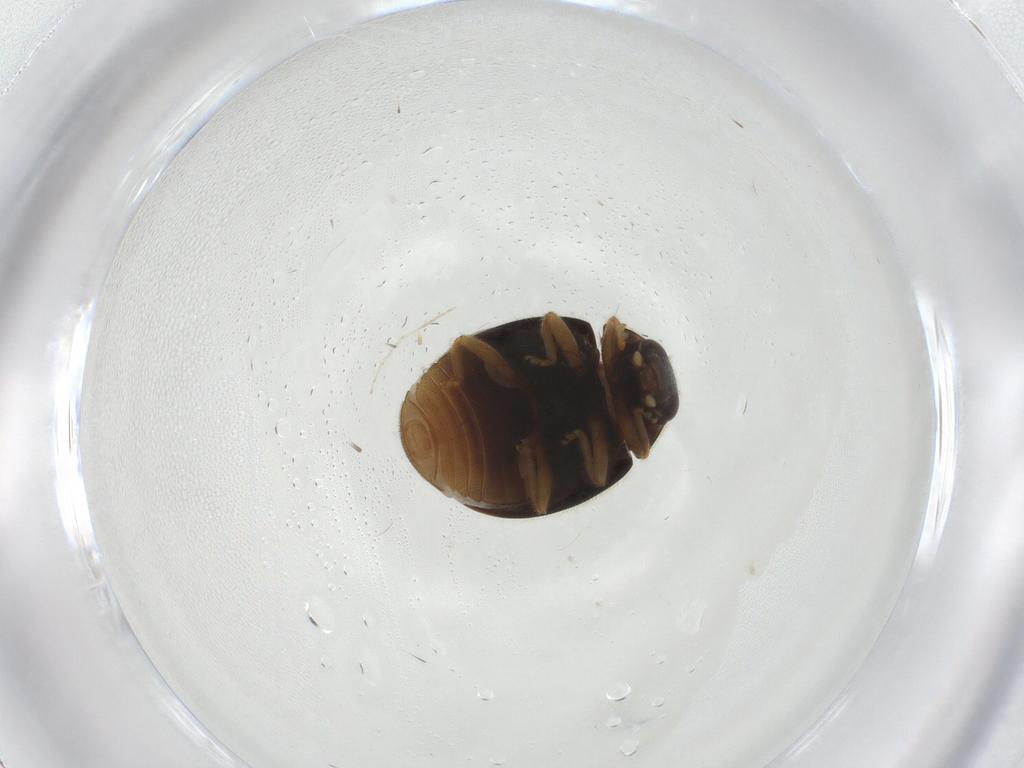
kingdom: Animalia
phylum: Arthropoda
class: Insecta
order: Coleoptera
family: Coccinellidae
